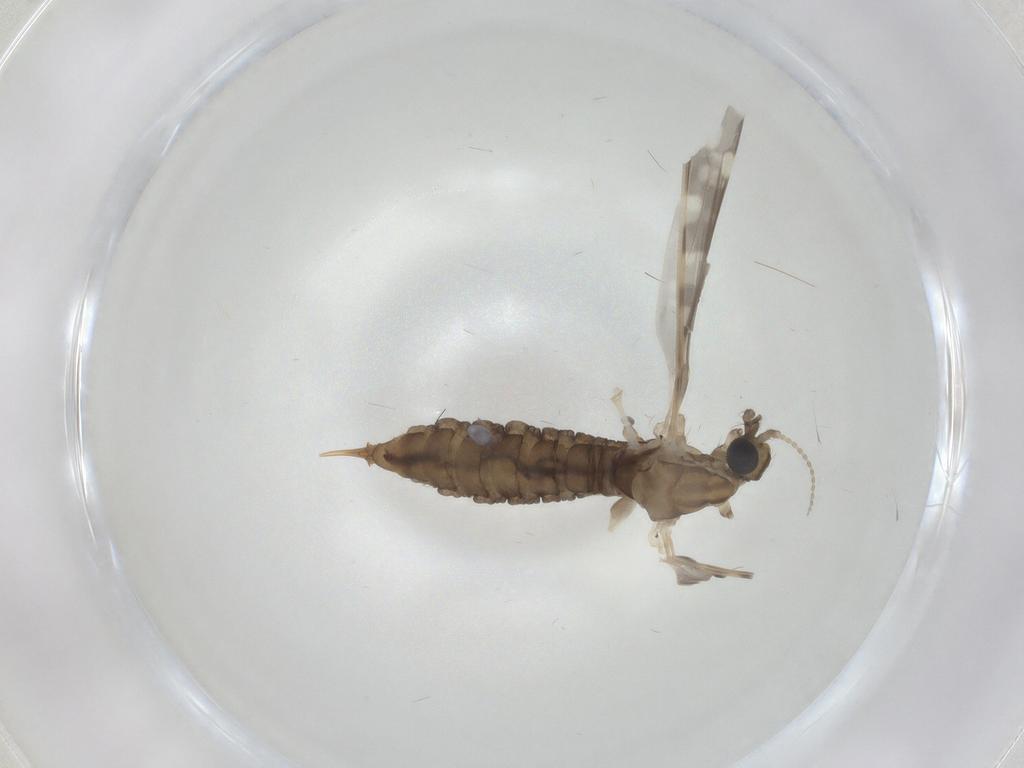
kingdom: Animalia
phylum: Arthropoda
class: Insecta
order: Diptera
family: Limoniidae
